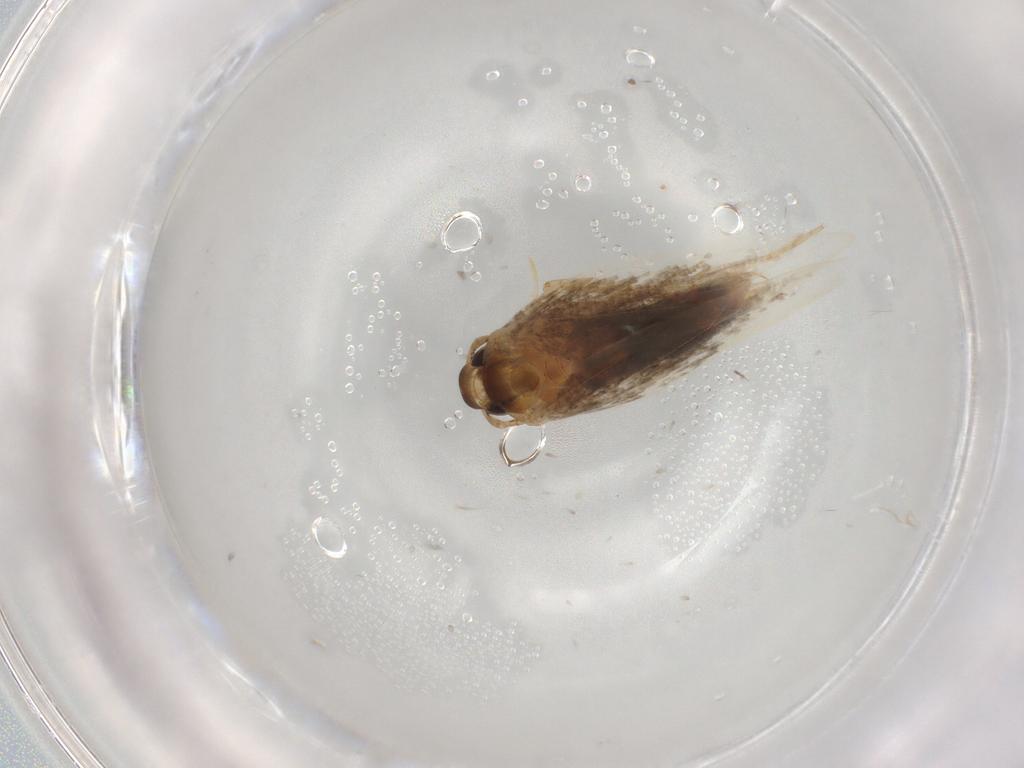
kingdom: Animalia
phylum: Arthropoda
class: Insecta
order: Lepidoptera
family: Gelechiidae
